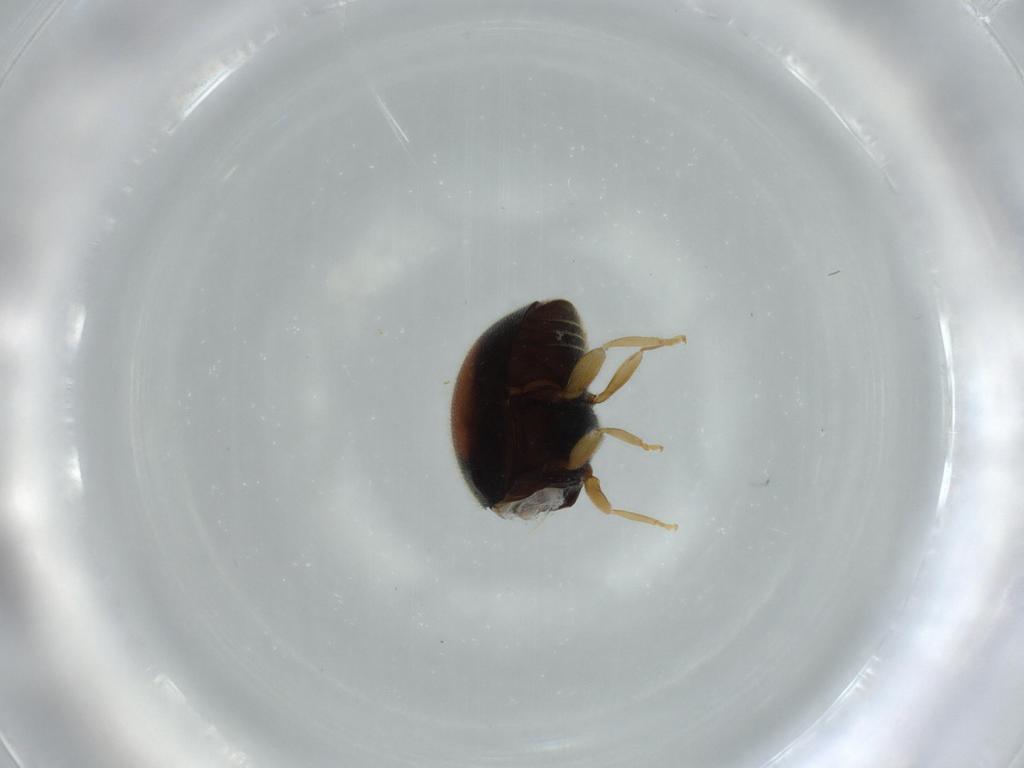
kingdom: Animalia
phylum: Arthropoda
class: Insecta
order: Coleoptera
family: Coccinellidae
